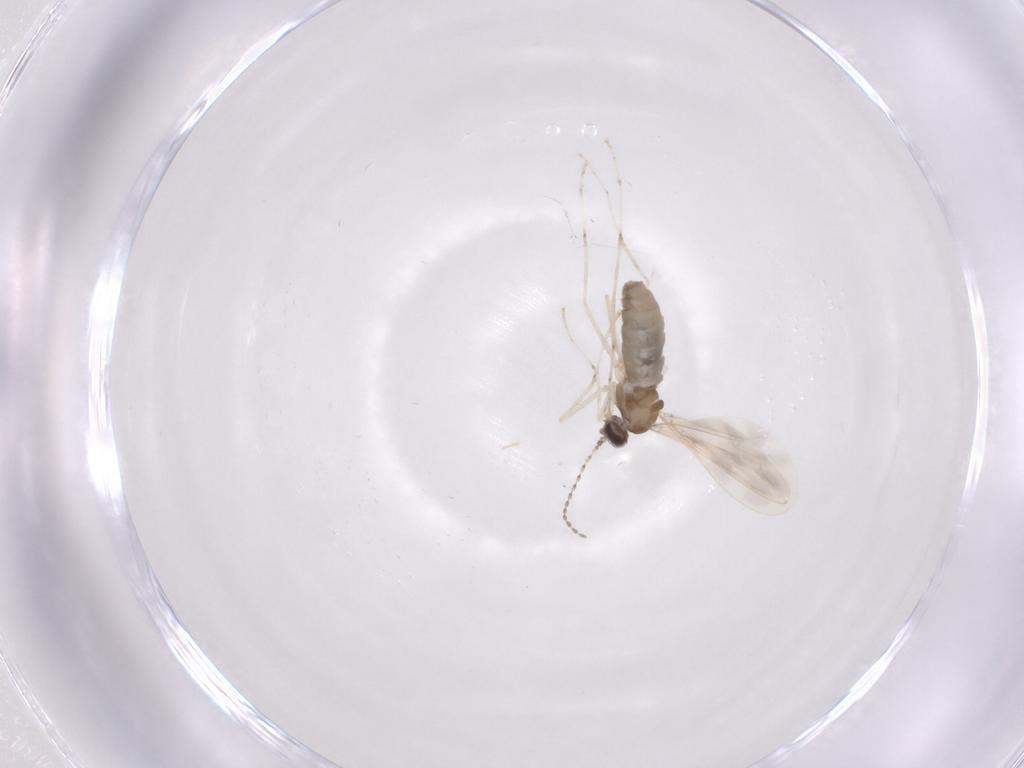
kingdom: Animalia
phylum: Arthropoda
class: Insecta
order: Diptera
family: Cecidomyiidae
